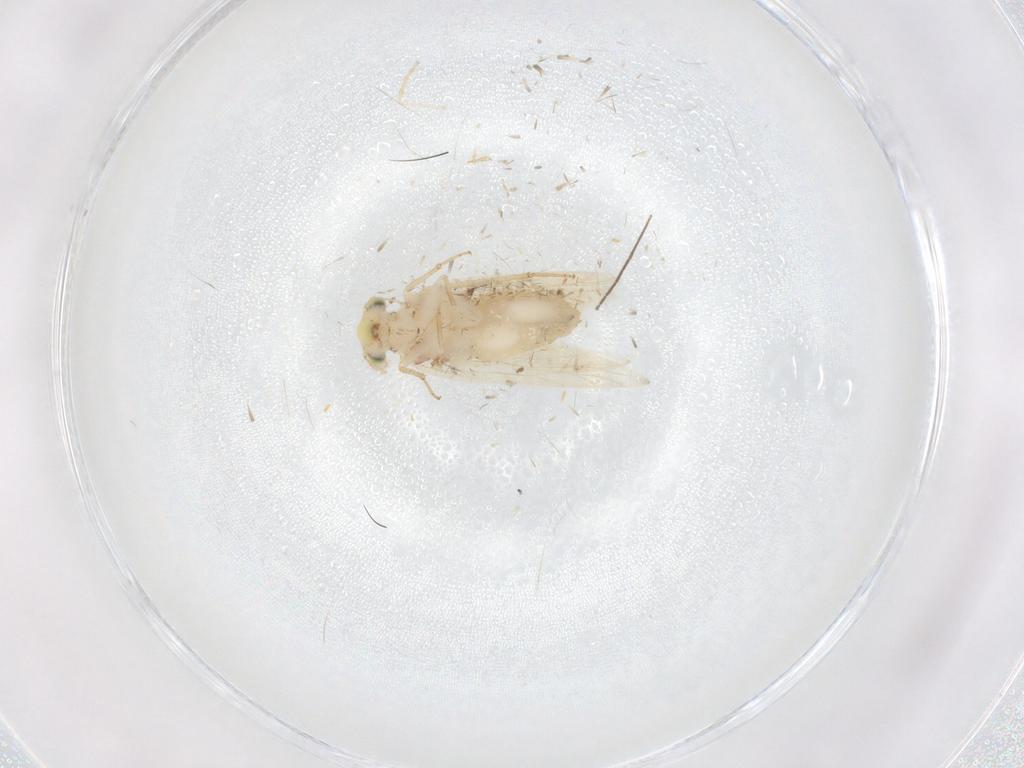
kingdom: Animalia
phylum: Arthropoda
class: Insecta
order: Psocodea
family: Lepidopsocidae
